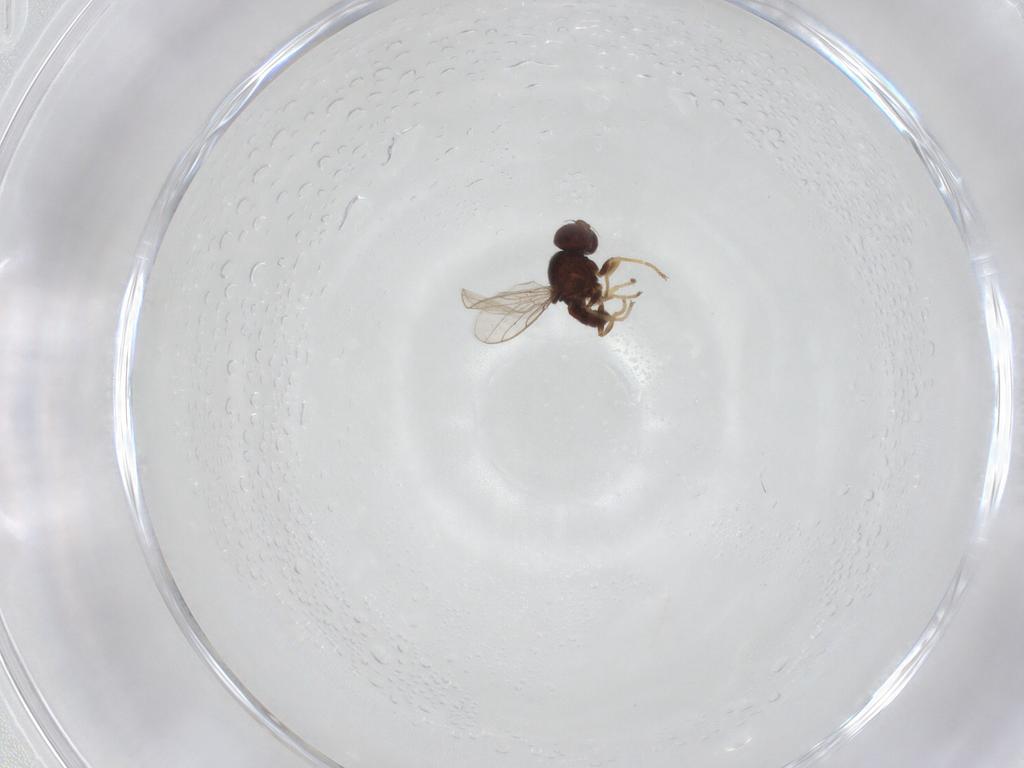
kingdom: Animalia
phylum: Arthropoda
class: Insecta
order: Diptera
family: Chloropidae
